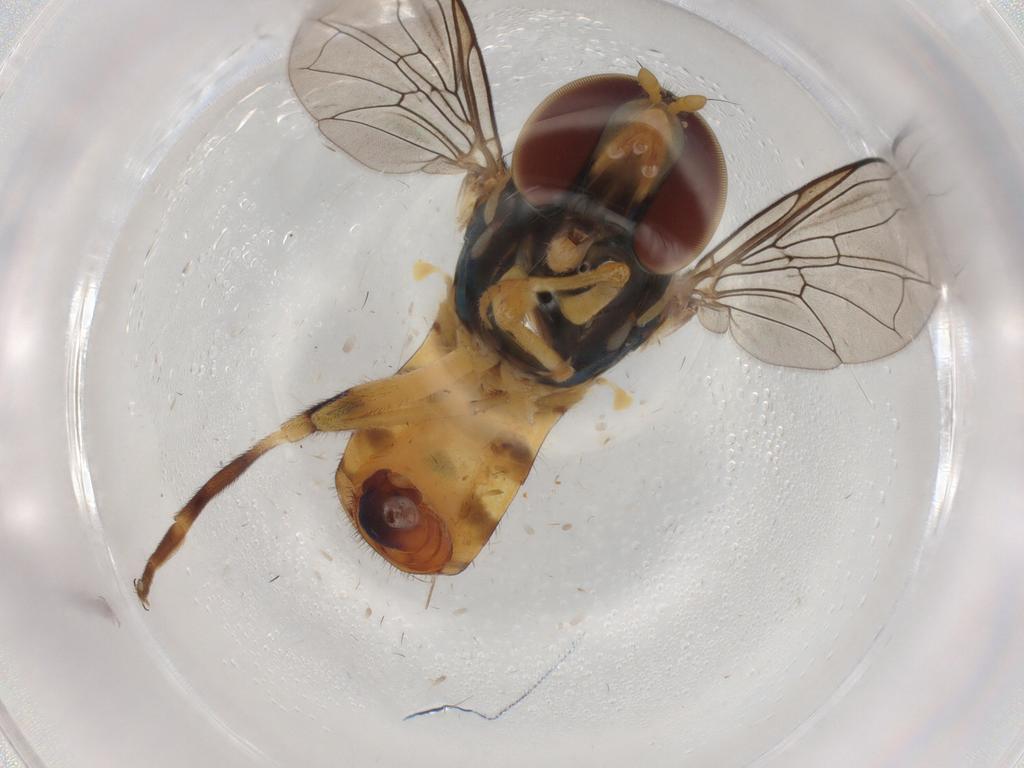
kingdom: Animalia
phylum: Arthropoda
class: Insecta
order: Diptera
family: Syrphidae
